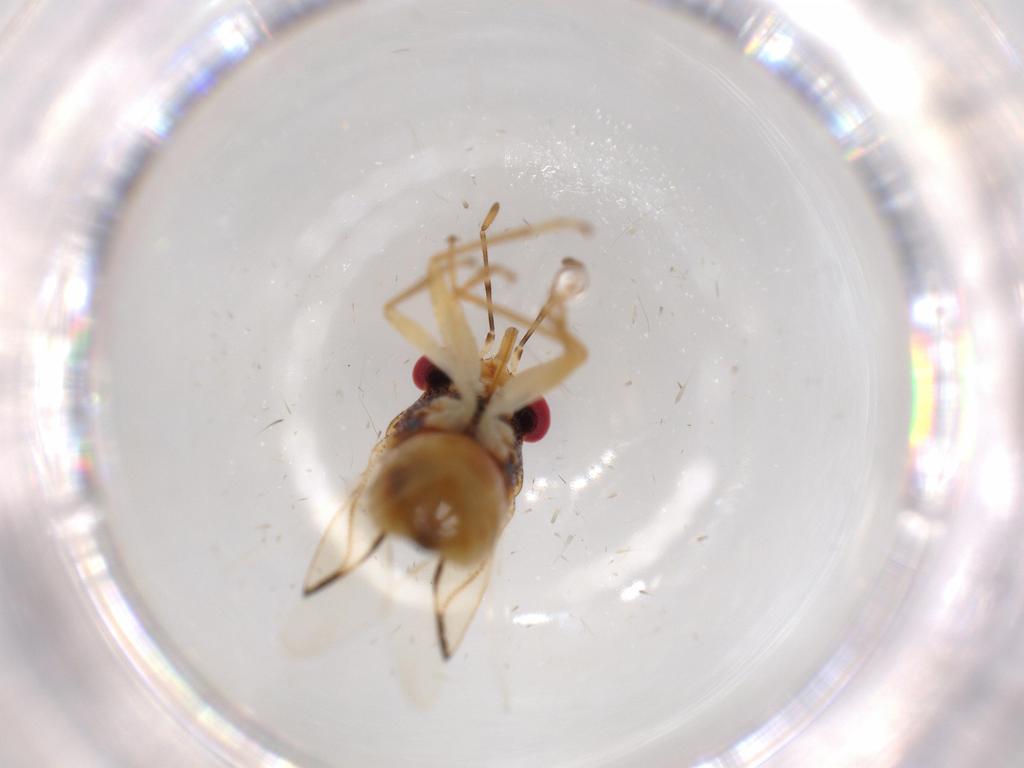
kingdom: Animalia
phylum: Arthropoda
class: Insecta
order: Hemiptera
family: Geocoridae
